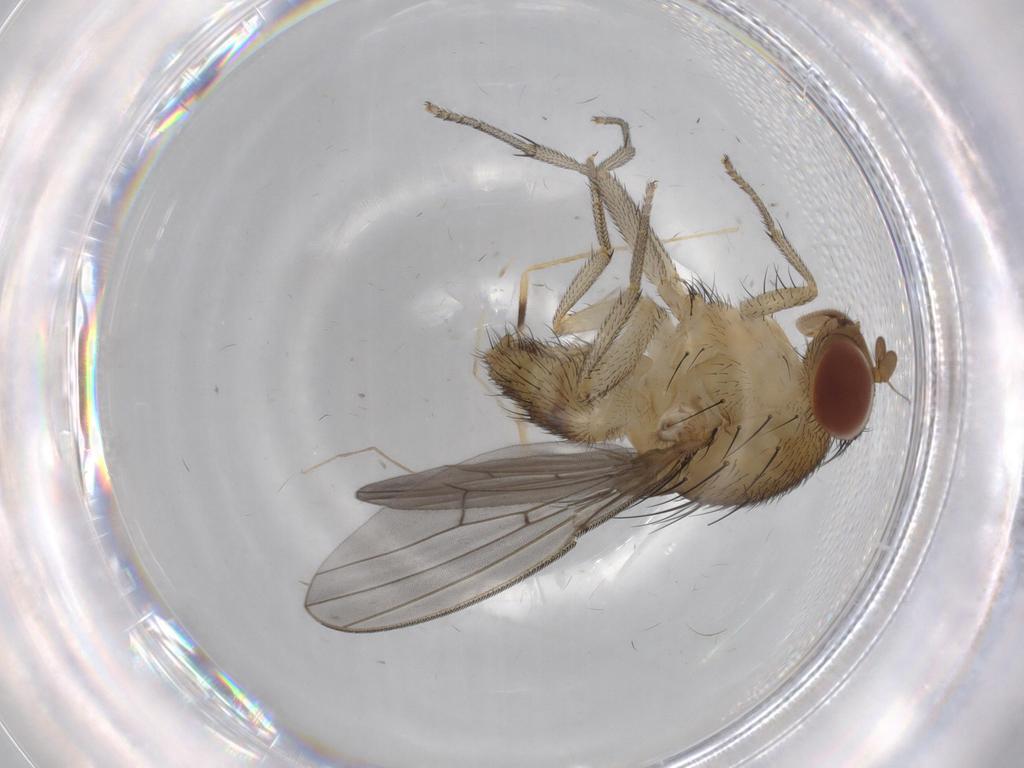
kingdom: Animalia
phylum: Arthropoda
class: Insecta
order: Diptera
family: Limoniidae
